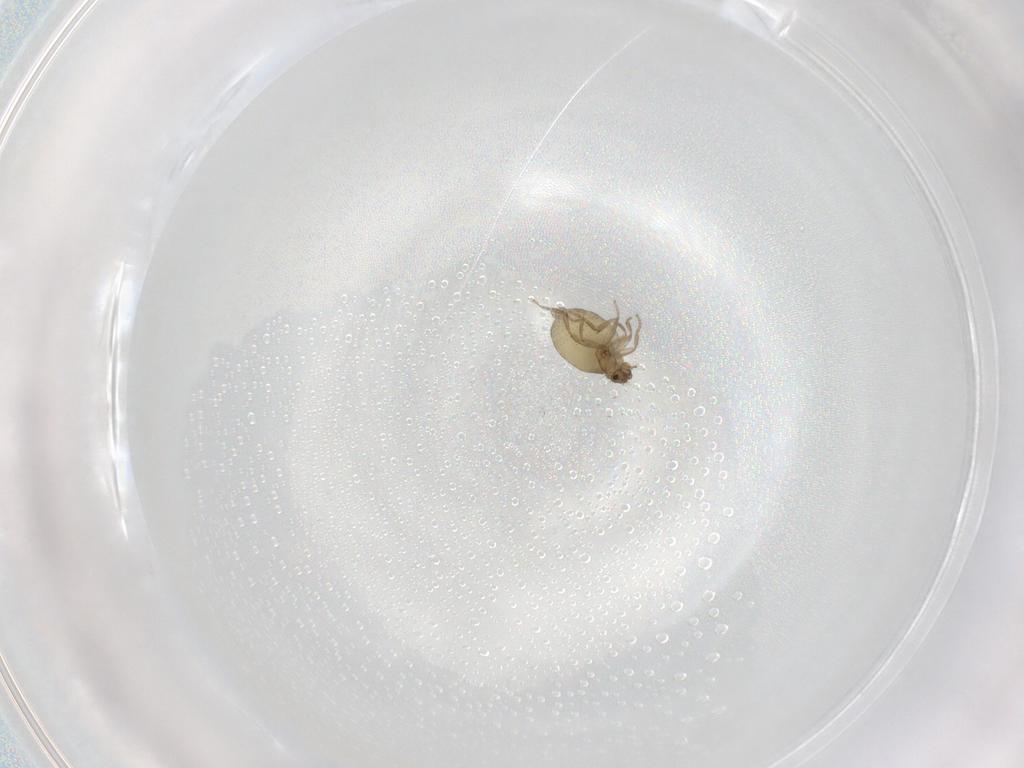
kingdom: Animalia
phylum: Arthropoda
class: Insecta
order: Diptera
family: Phoridae
